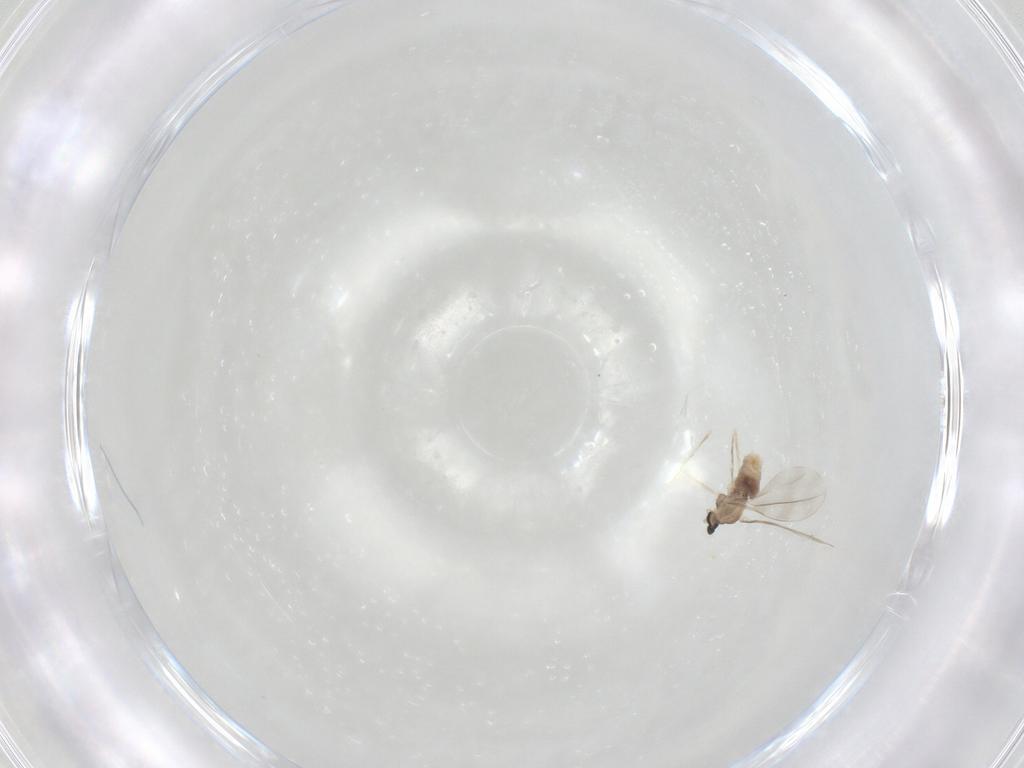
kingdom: Animalia
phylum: Arthropoda
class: Insecta
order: Diptera
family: Cecidomyiidae
